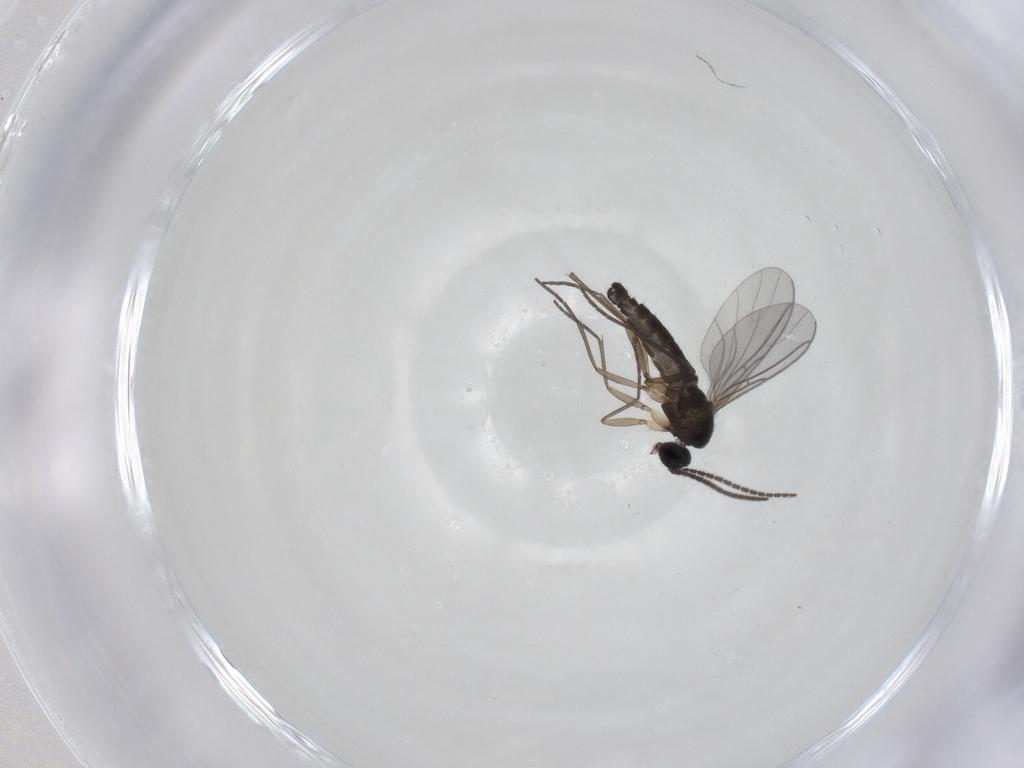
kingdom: Animalia
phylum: Arthropoda
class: Insecta
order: Diptera
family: Sciaridae
